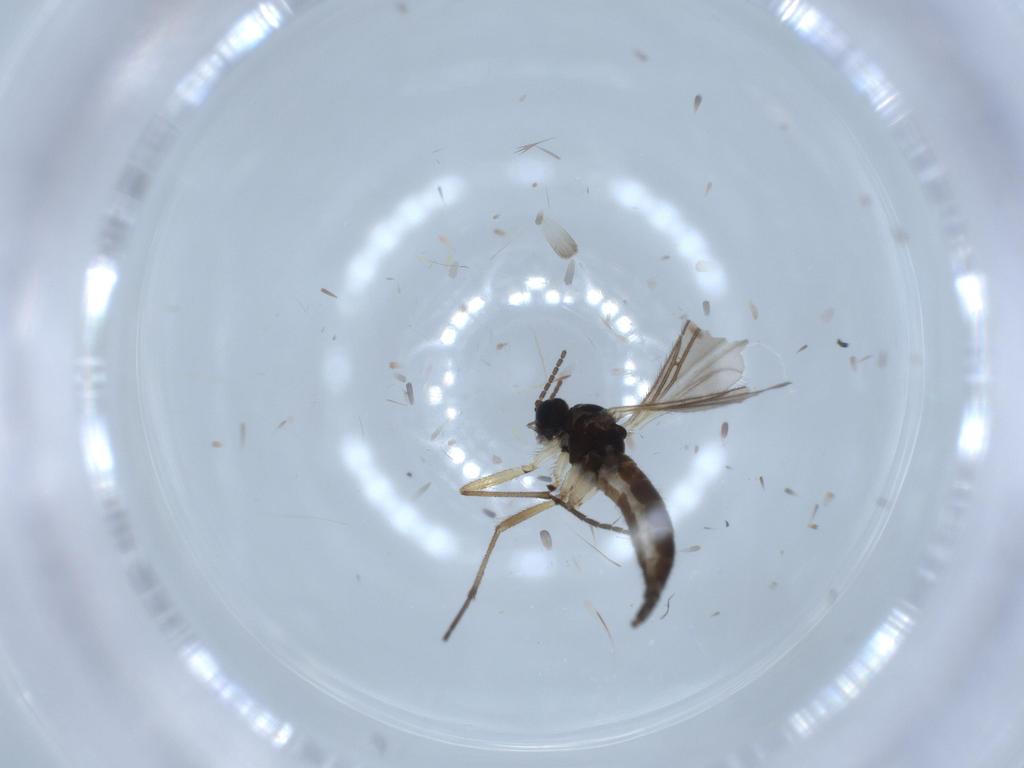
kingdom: Animalia
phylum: Arthropoda
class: Insecta
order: Diptera
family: Sciaridae
